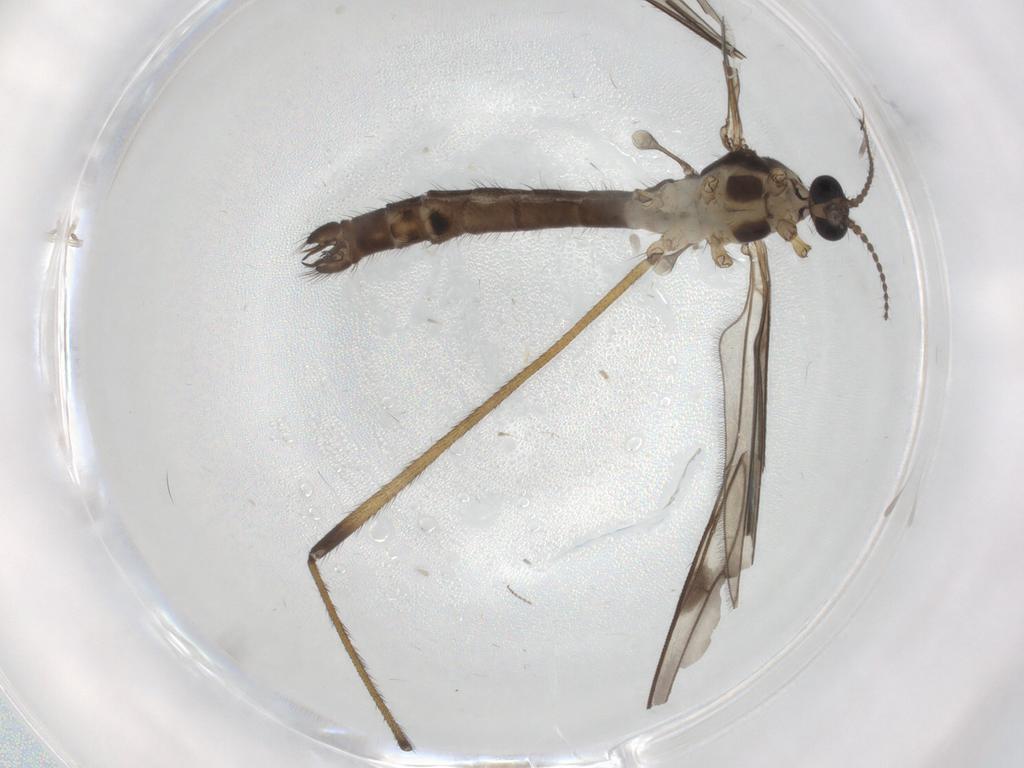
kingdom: Animalia
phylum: Arthropoda
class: Insecta
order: Diptera
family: Limoniidae
